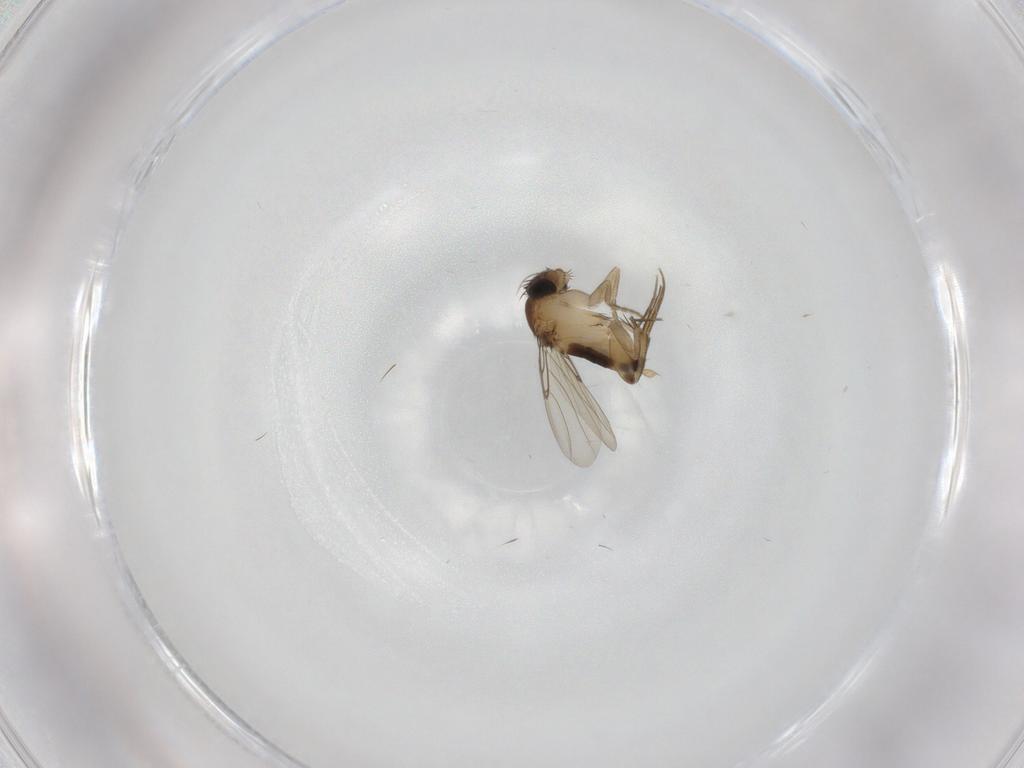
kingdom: Animalia
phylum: Arthropoda
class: Insecta
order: Diptera
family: Phoridae
